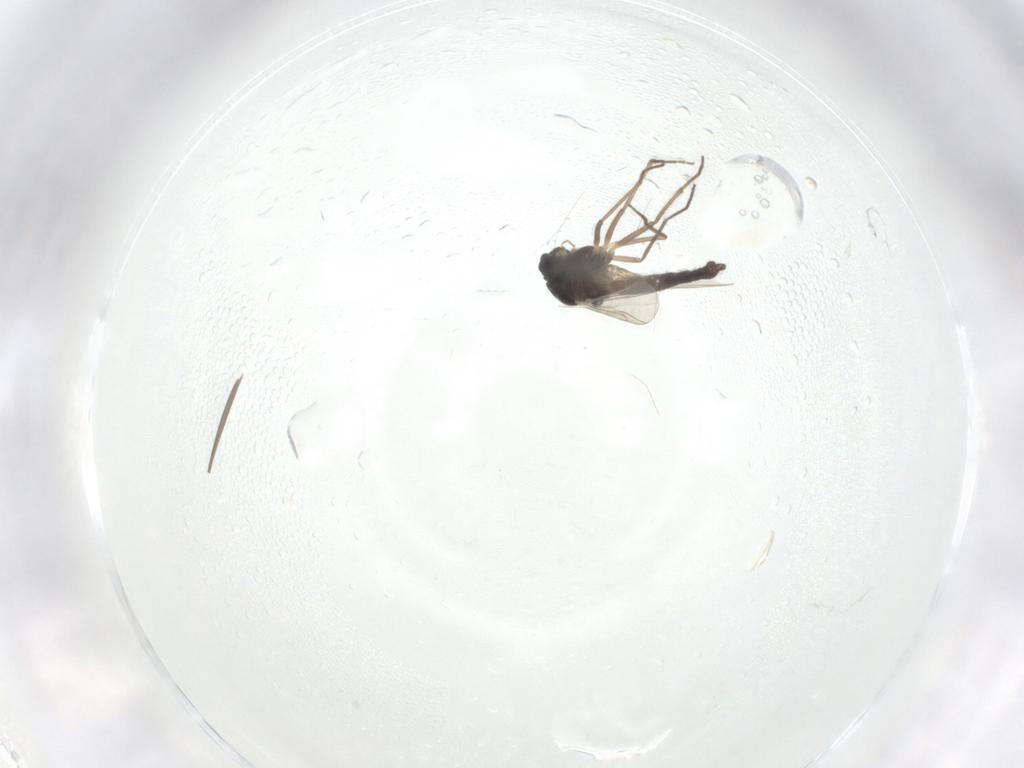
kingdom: Animalia
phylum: Arthropoda
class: Insecta
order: Diptera
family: Chironomidae
